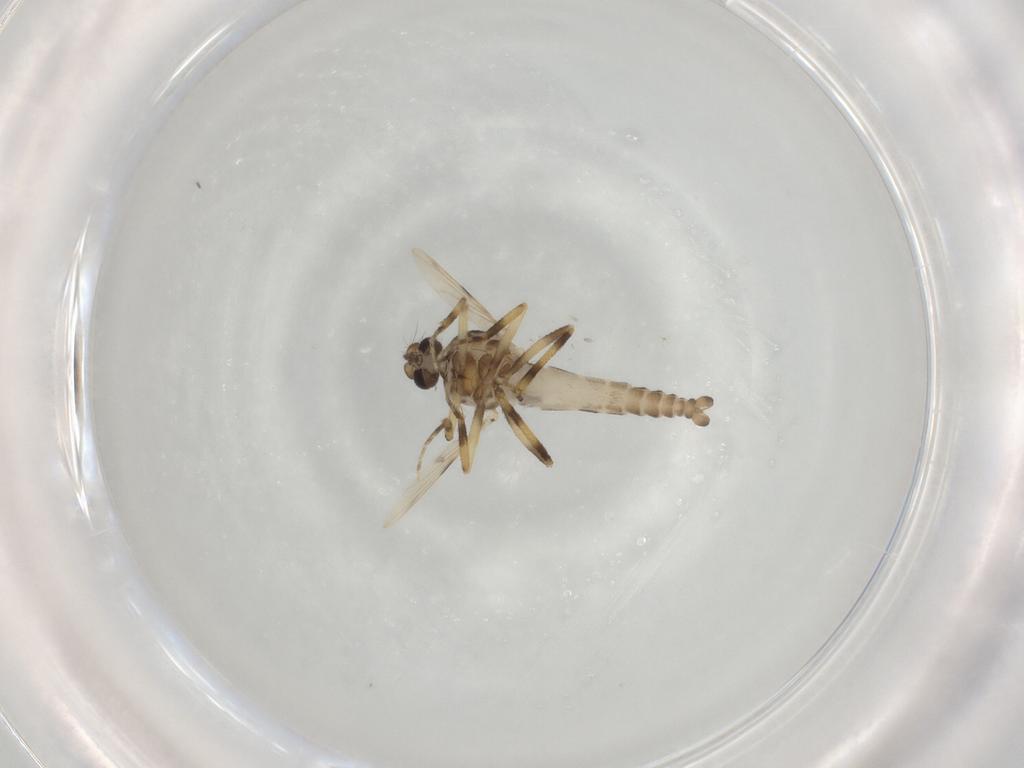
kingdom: Animalia
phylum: Arthropoda
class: Insecta
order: Diptera
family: Ceratopogonidae
